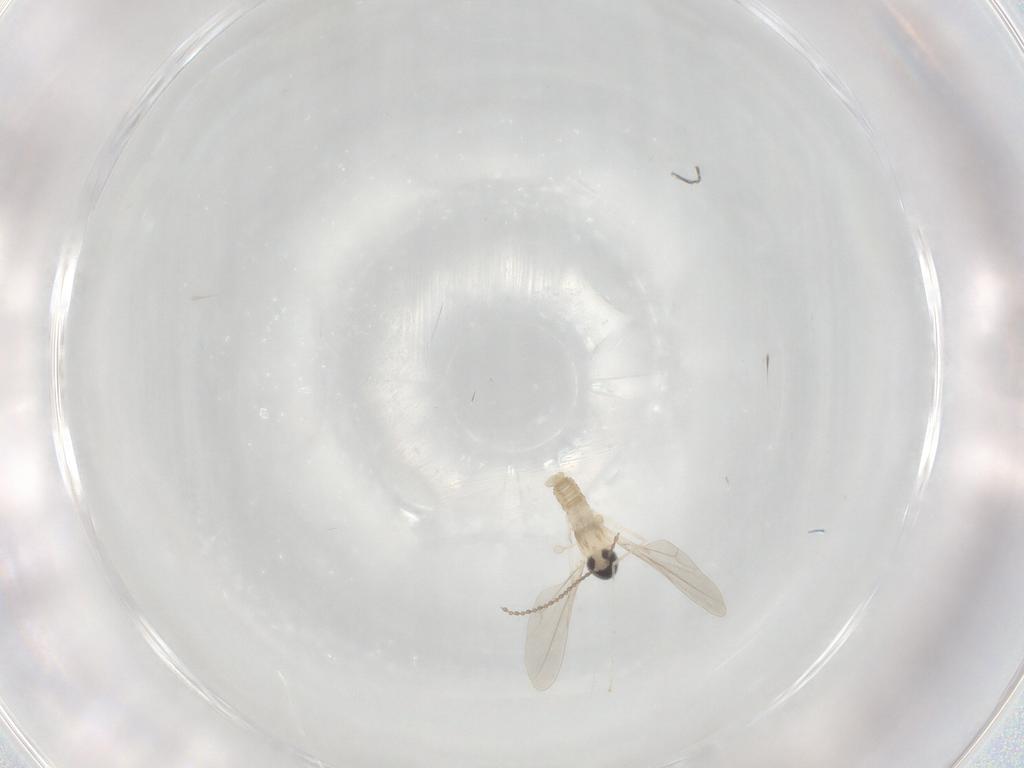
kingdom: Animalia
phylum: Arthropoda
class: Insecta
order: Diptera
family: Cecidomyiidae
